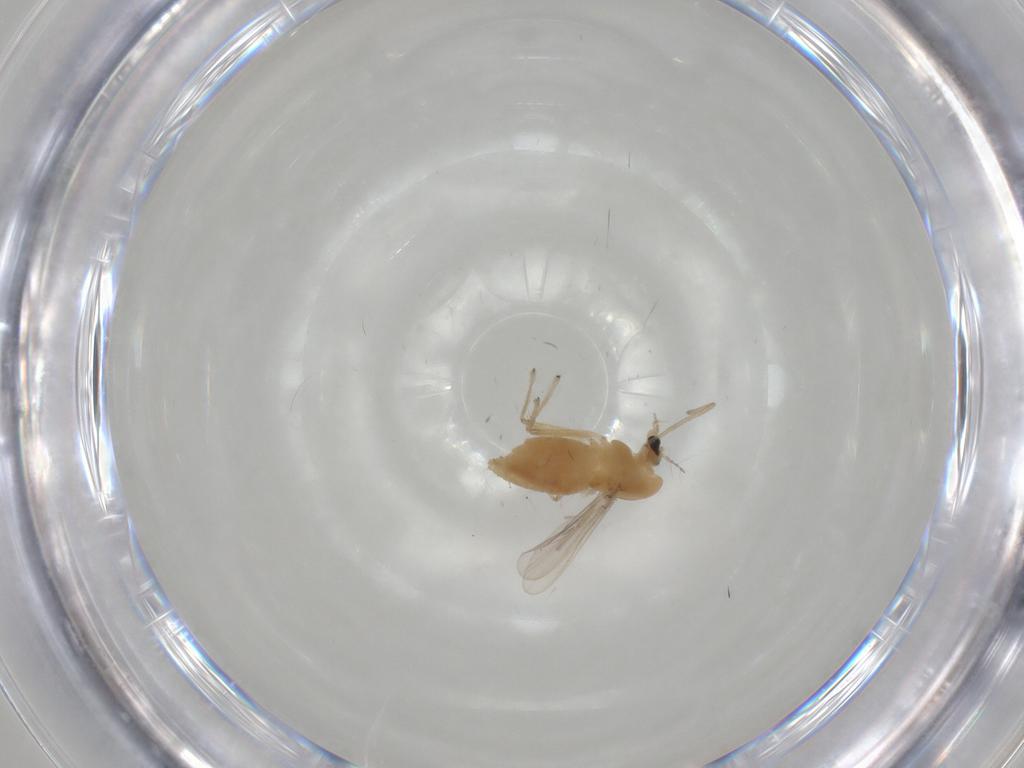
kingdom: Animalia
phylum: Arthropoda
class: Insecta
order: Diptera
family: Chironomidae
